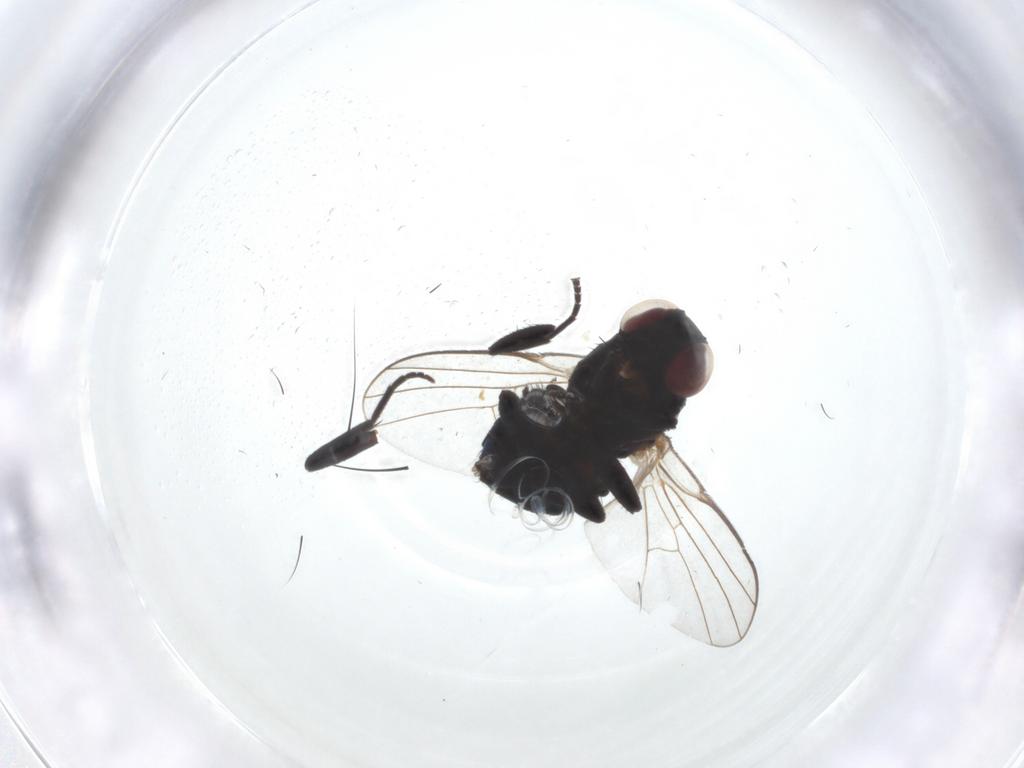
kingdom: Animalia
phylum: Arthropoda
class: Insecta
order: Diptera
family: Agromyzidae
